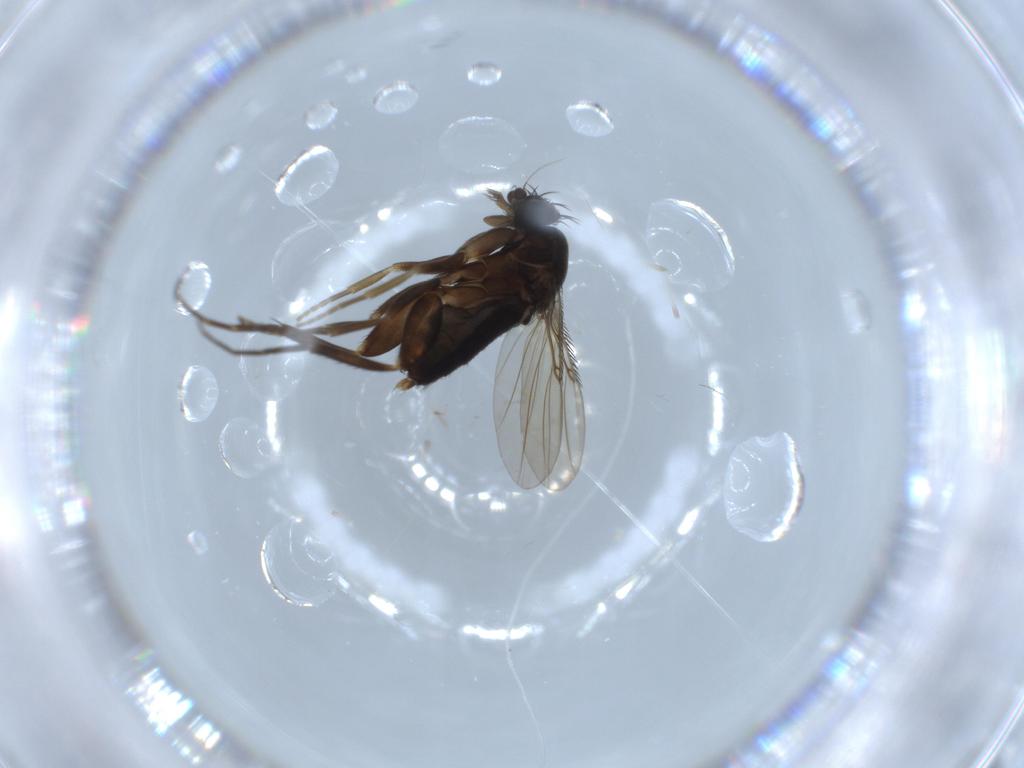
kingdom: Animalia
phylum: Arthropoda
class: Insecta
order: Diptera
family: Phoridae
